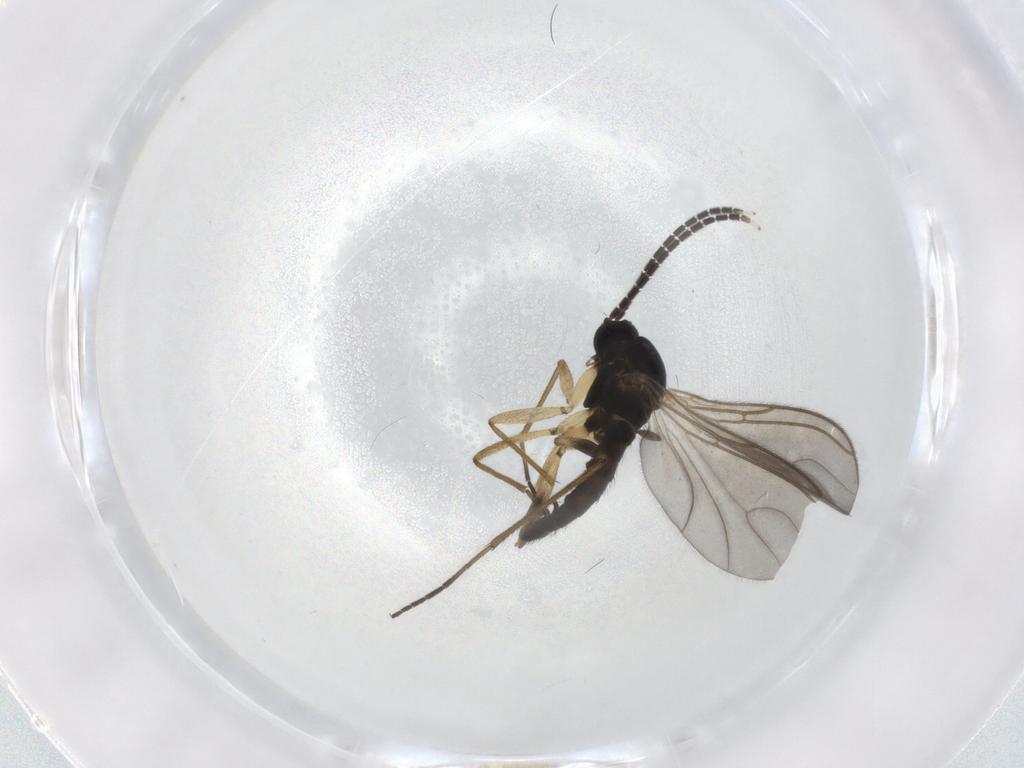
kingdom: Animalia
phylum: Arthropoda
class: Insecta
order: Diptera
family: Sciaridae
